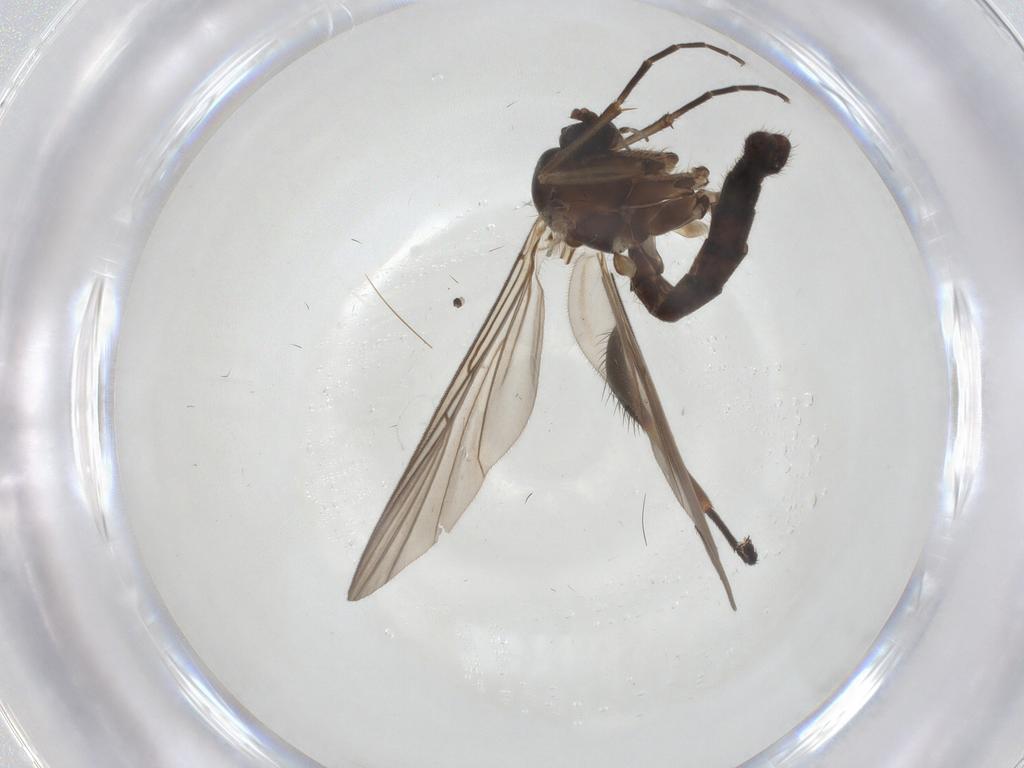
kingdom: Animalia
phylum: Arthropoda
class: Insecta
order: Diptera
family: Anthomyiidae
